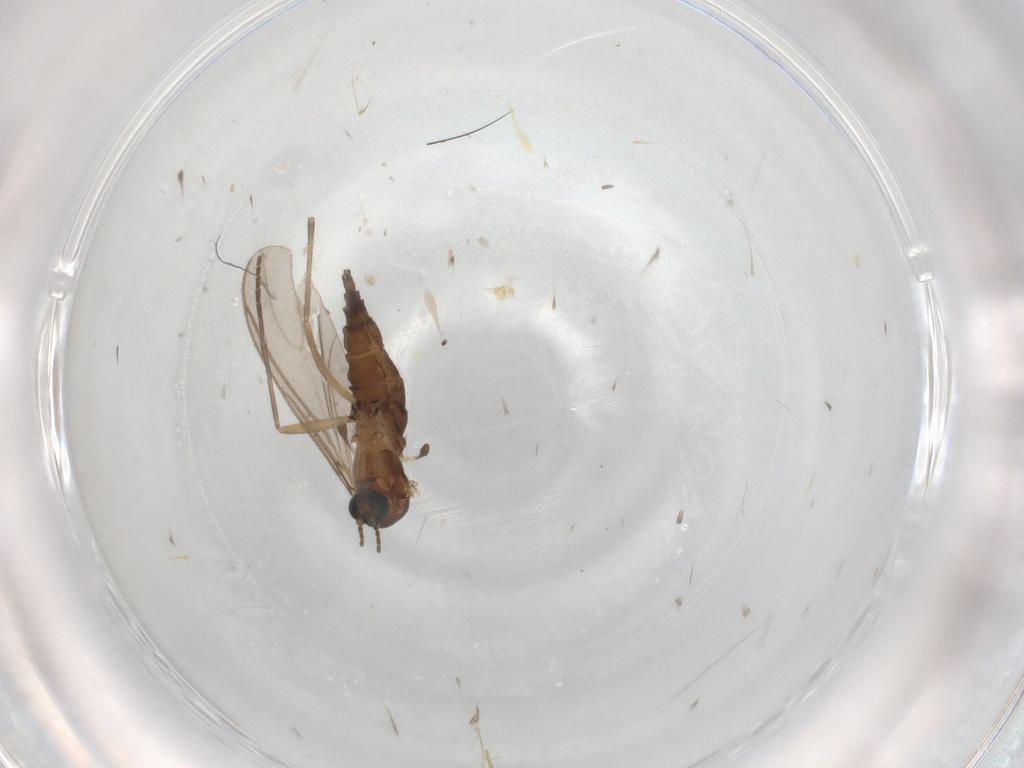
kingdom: Animalia
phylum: Arthropoda
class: Insecta
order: Diptera
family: Sciaridae
